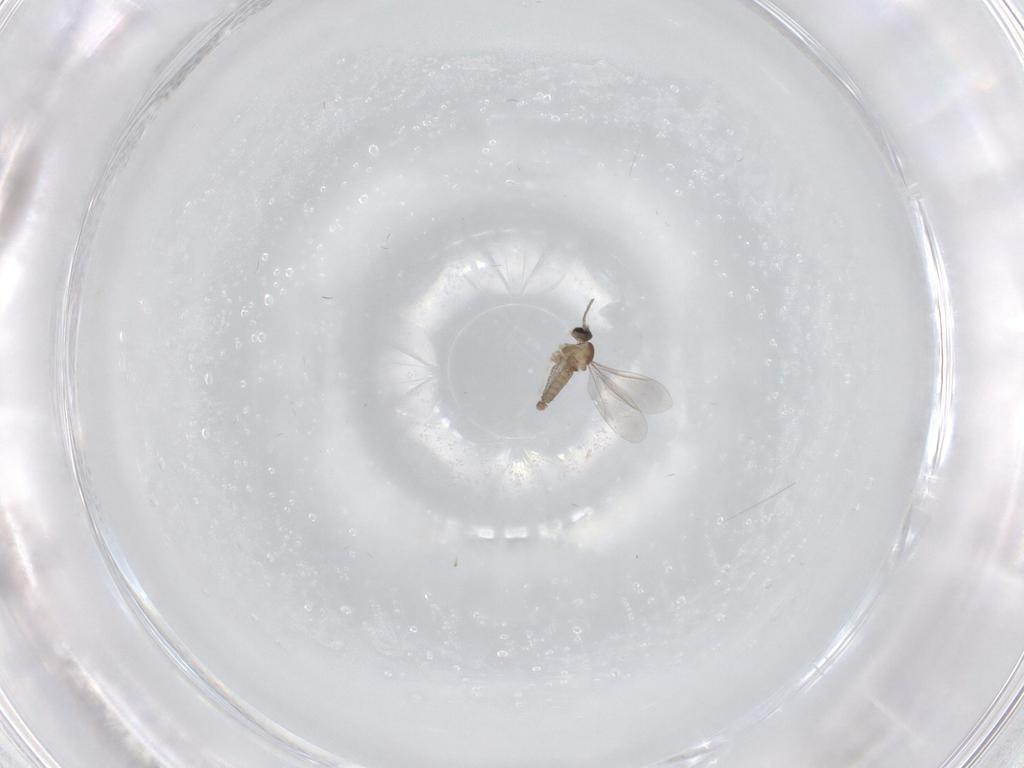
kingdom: Animalia
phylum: Arthropoda
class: Insecta
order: Diptera
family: Cecidomyiidae
